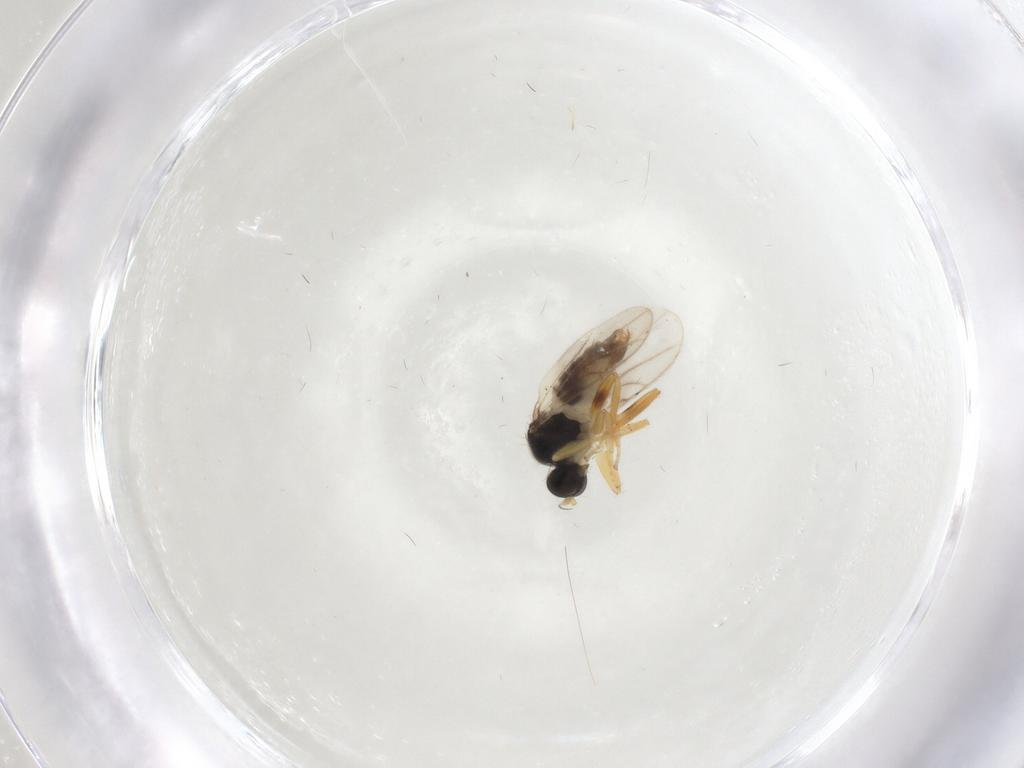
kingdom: Animalia
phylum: Arthropoda
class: Insecta
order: Diptera
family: Hybotidae
